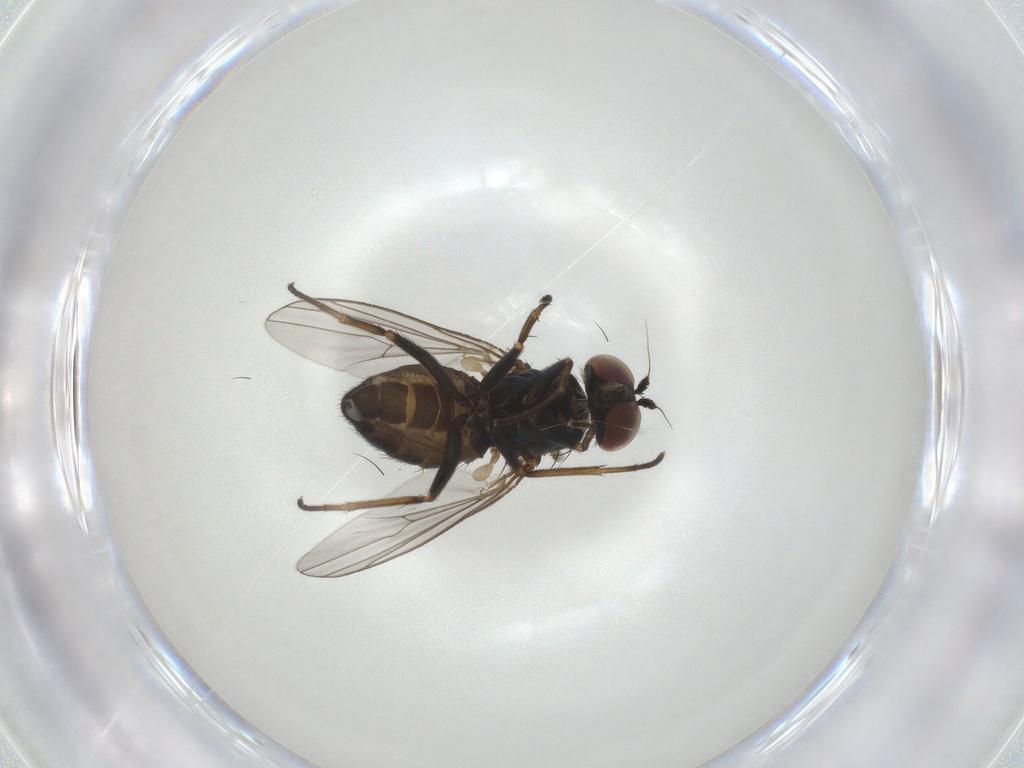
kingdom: Animalia
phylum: Arthropoda
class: Insecta
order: Diptera
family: Dolichopodidae
